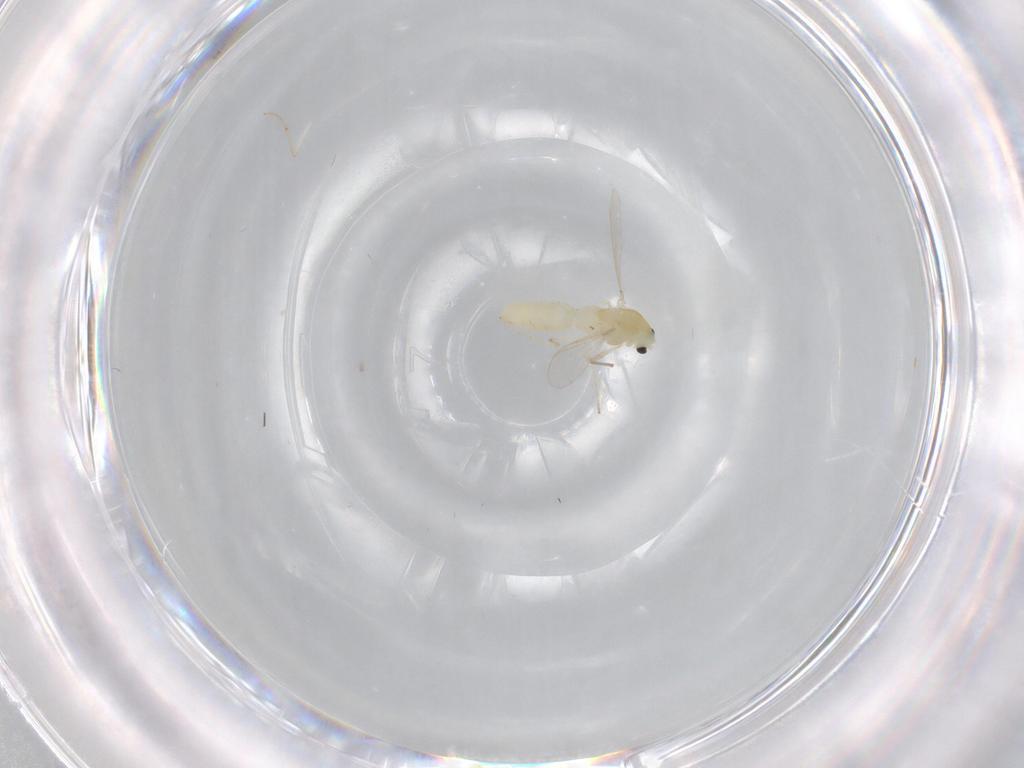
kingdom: Animalia
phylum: Arthropoda
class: Insecta
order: Diptera
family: Chironomidae
